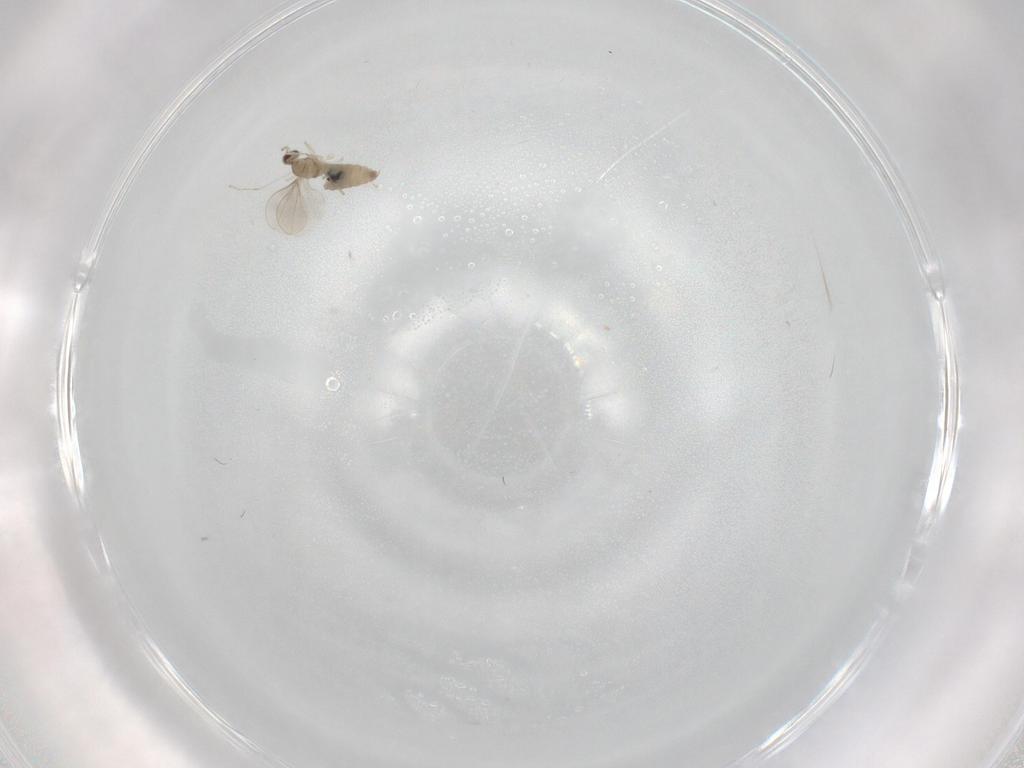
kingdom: Animalia
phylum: Arthropoda
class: Insecta
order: Diptera
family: Cecidomyiidae
